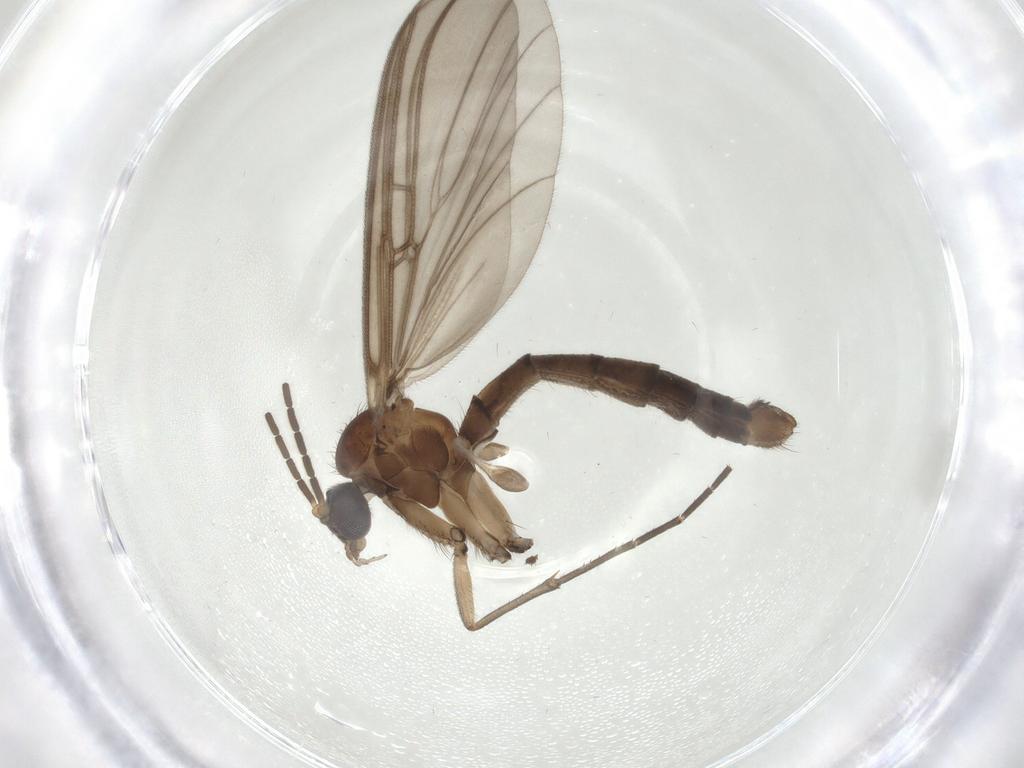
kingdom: Animalia
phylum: Arthropoda
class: Insecta
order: Diptera
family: Mycetophilidae
